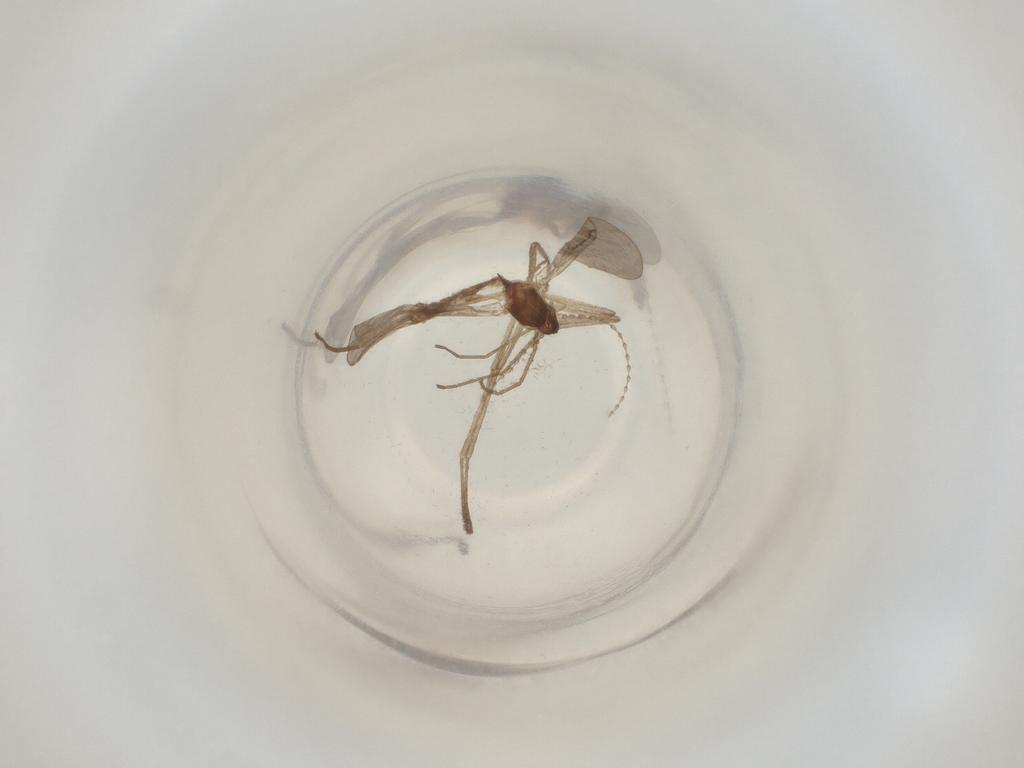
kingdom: Animalia
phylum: Arthropoda
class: Insecta
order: Diptera
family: Cecidomyiidae
